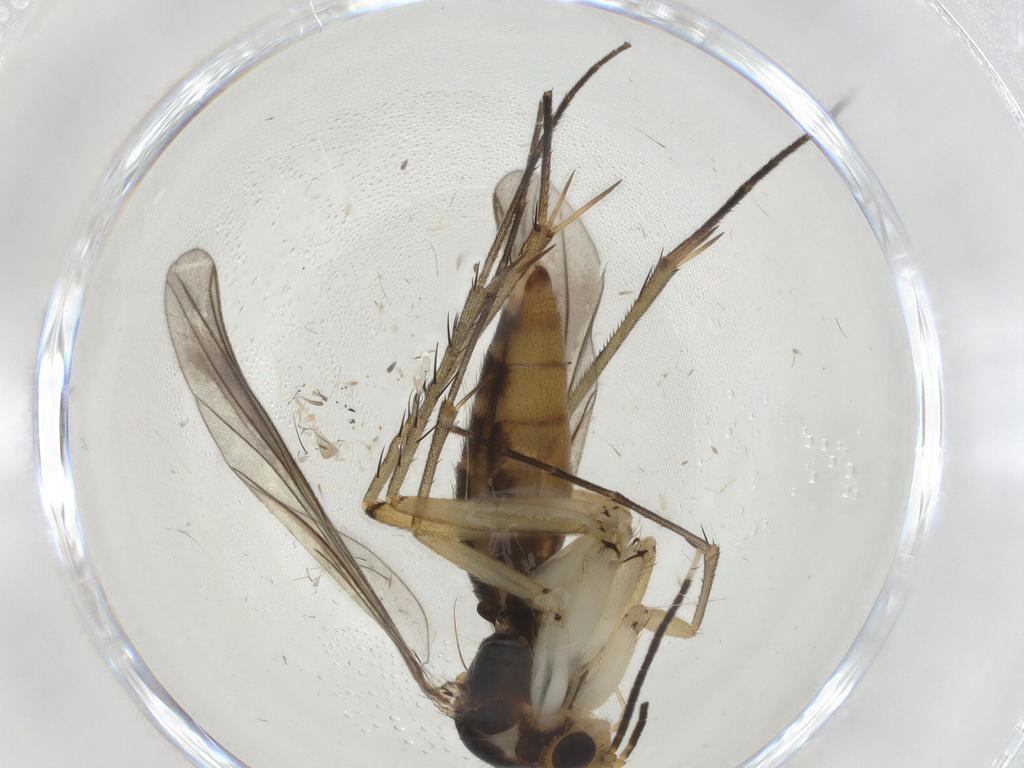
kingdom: Animalia
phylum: Arthropoda
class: Insecta
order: Diptera
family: Mycetophilidae
